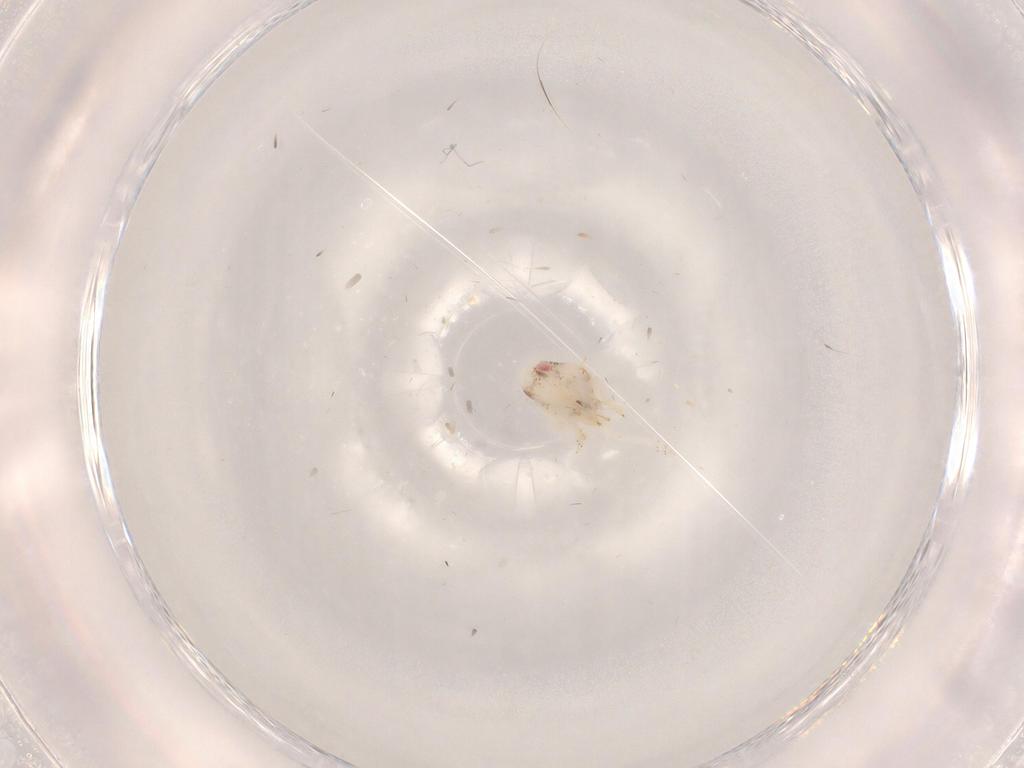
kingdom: Animalia
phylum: Arthropoda
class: Insecta
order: Hemiptera
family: Fulgoroidea_incertae_sedis
